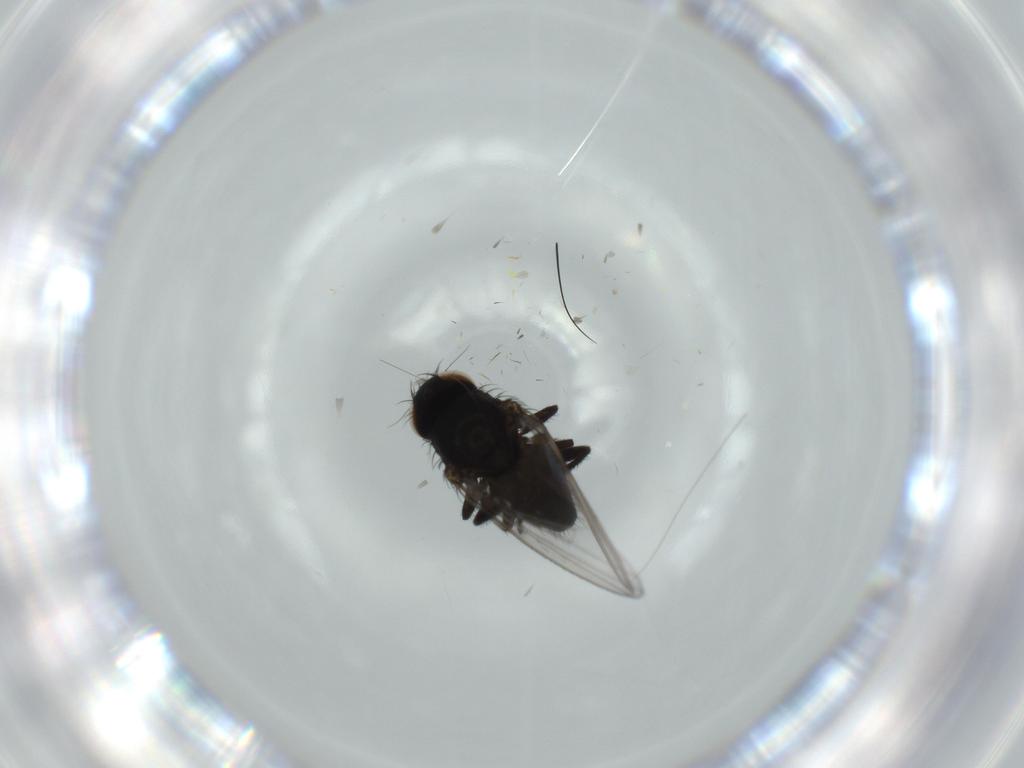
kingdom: Animalia
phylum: Arthropoda
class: Insecta
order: Diptera
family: Milichiidae
